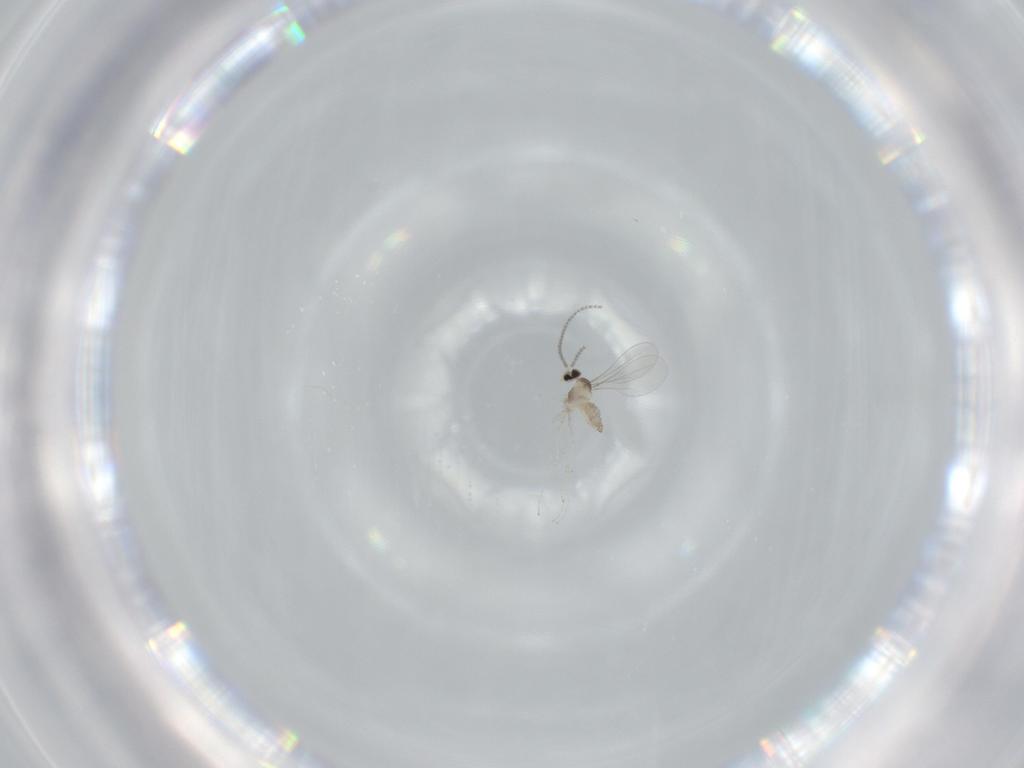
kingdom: Animalia
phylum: Arthropoda
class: Insecta
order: Diptera
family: Cecidomyiidae
